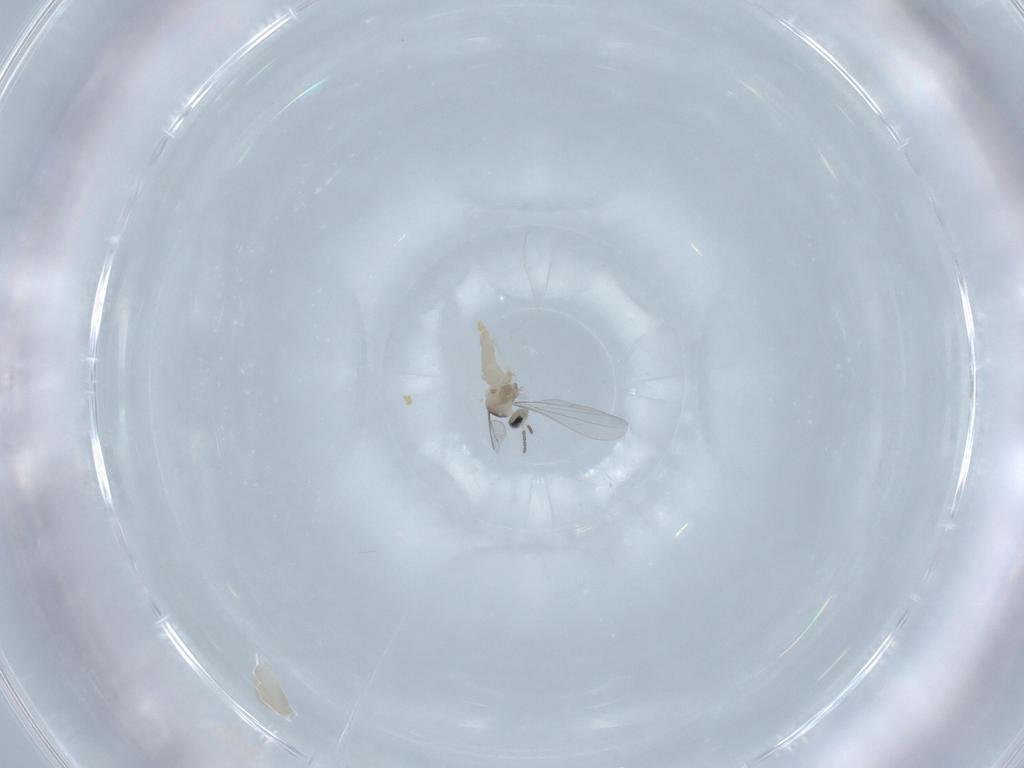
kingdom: Animalia
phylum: Arthropoda
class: Insecta
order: Diptera
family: Cecidomyiidae
